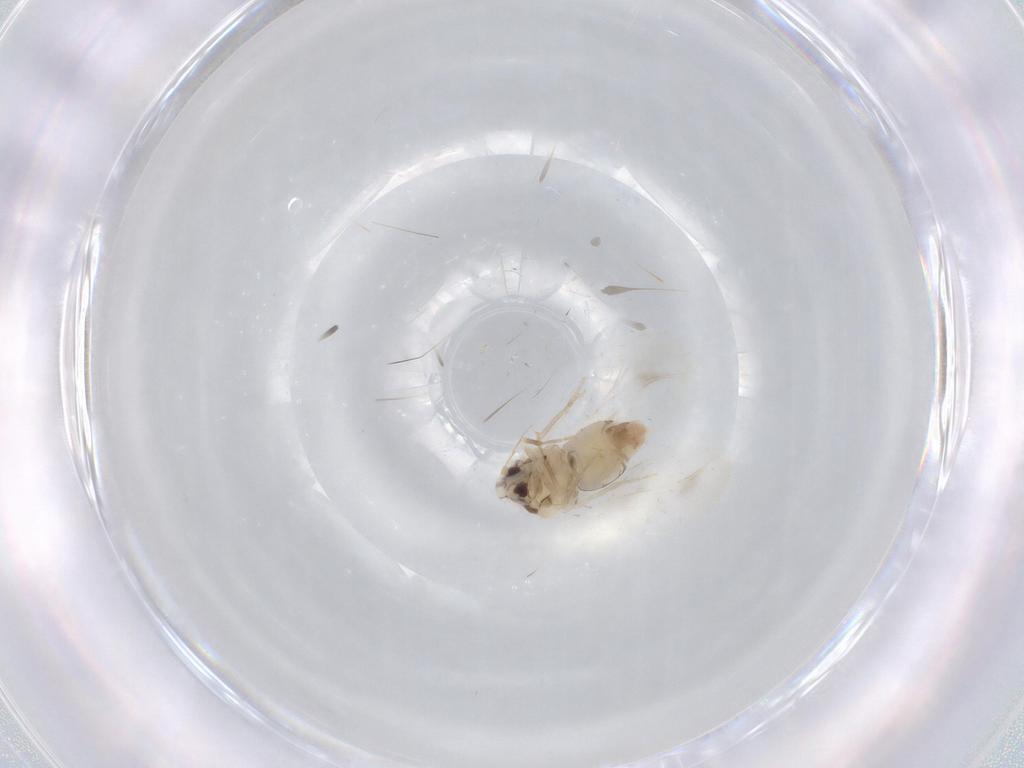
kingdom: Animalia
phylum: Arthropoda
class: Insecta
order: Hemiptera
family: Aleyrodidae
